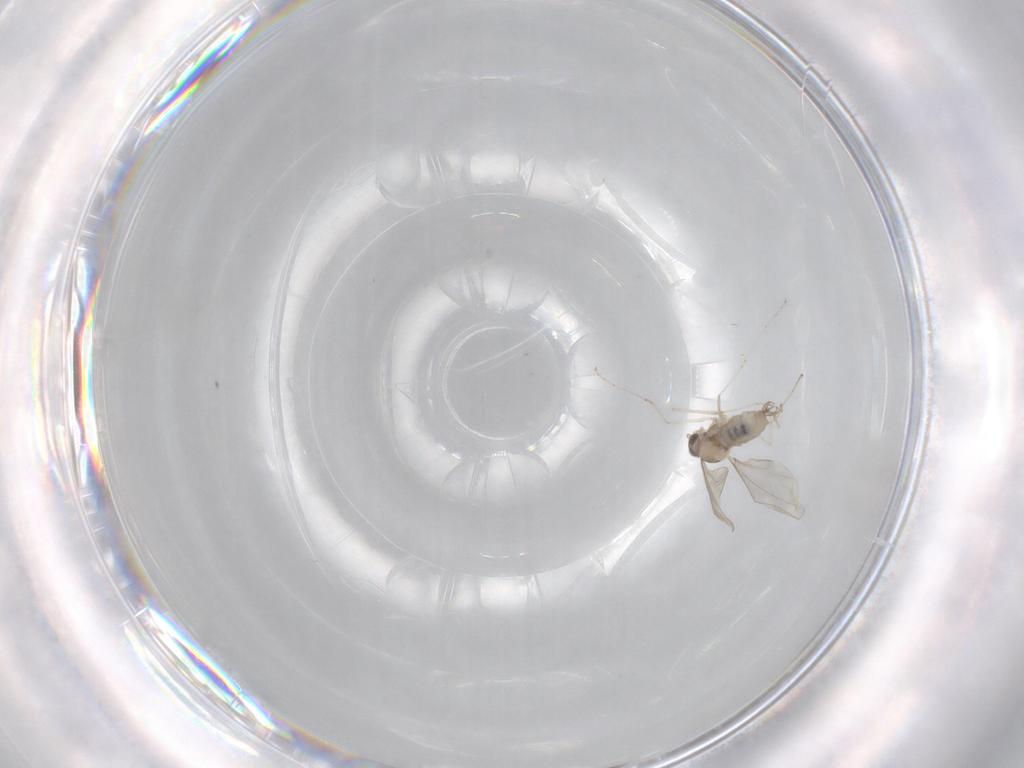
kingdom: Animalia
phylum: Arthropoda
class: Insecta
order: Diptera
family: Cecidomyiidae
